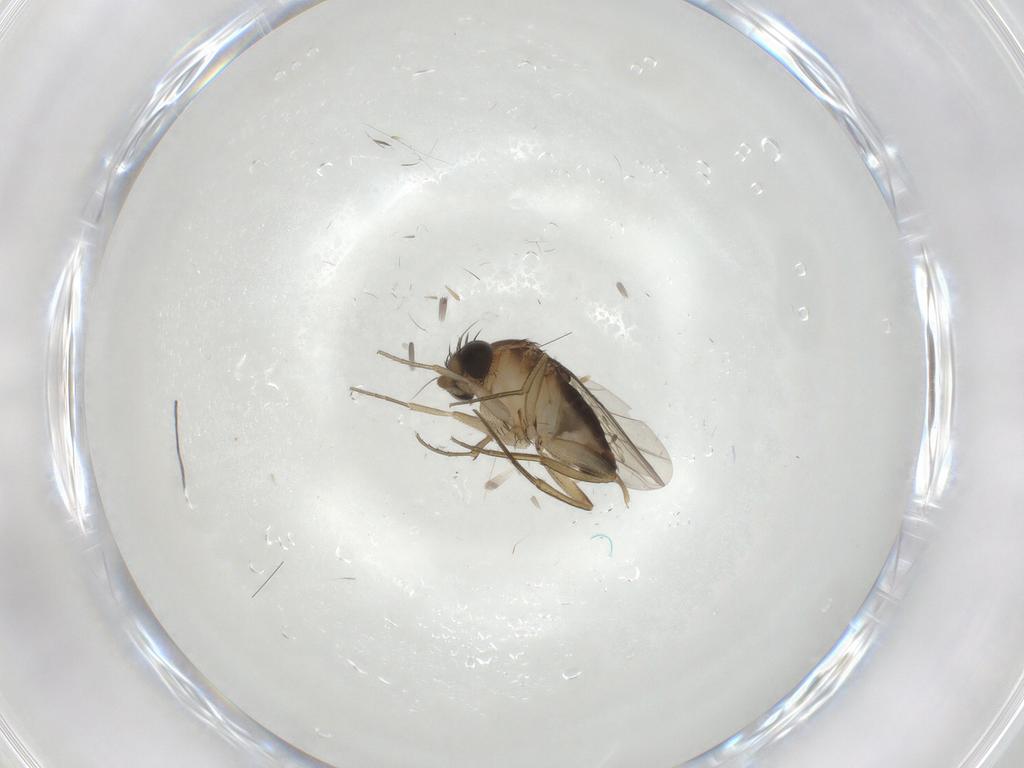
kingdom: Animalia
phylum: Arthropoda
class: Insecta
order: Diptera
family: Cecidomyiidae
